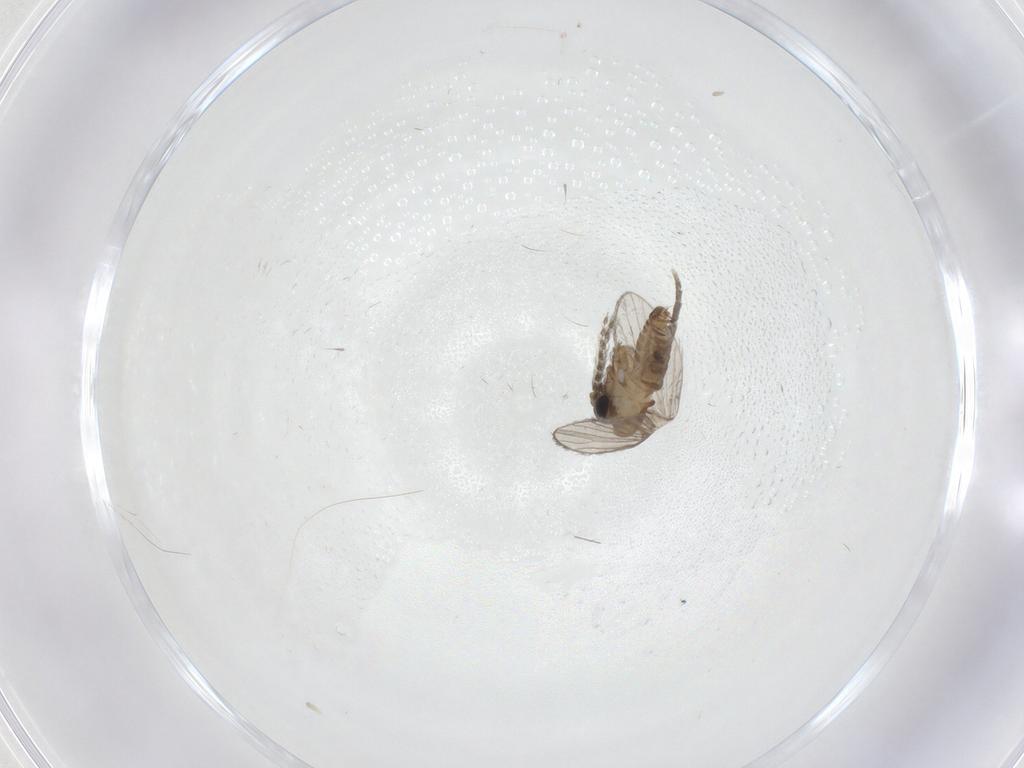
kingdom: Animalia
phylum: Arthropoda
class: Insecta
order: Diptera
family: Psychodidae
